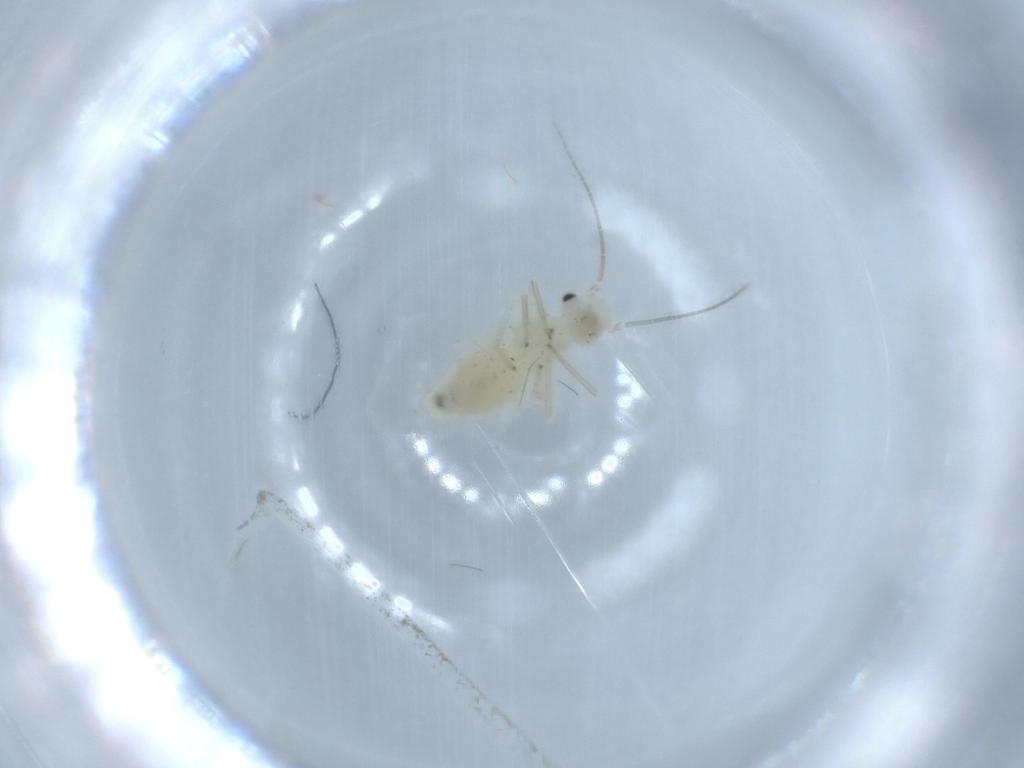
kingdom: Animalia
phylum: Arthropoda
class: Insecta
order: Psocodea
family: Caeciliusidae
